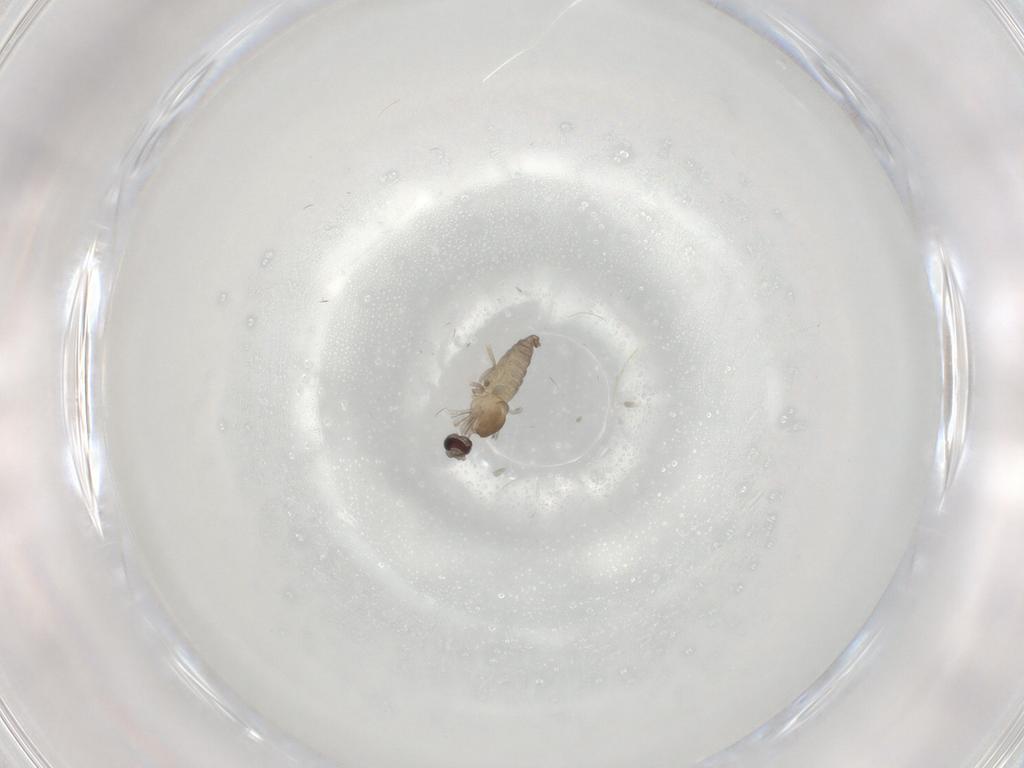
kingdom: Animalia
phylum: Arthropoda
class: Insecta
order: Diptera
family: Cecidomyiidae
